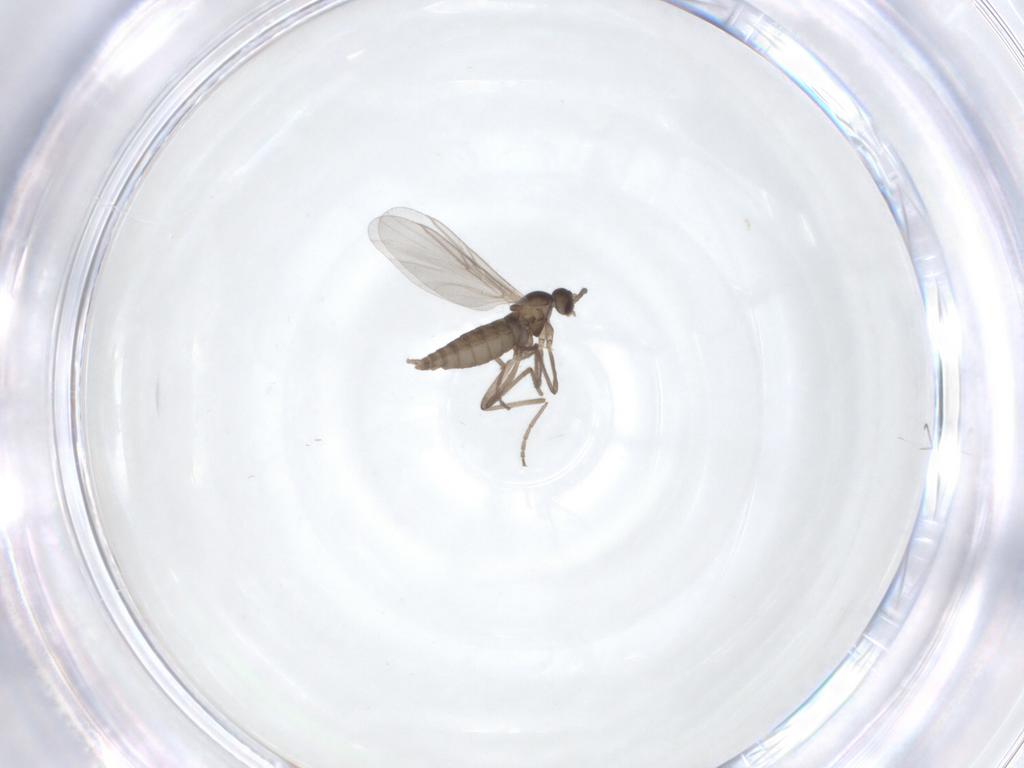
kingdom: Animalia
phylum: Arthropoda
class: Insecta
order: Diptera
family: Chironomidae
